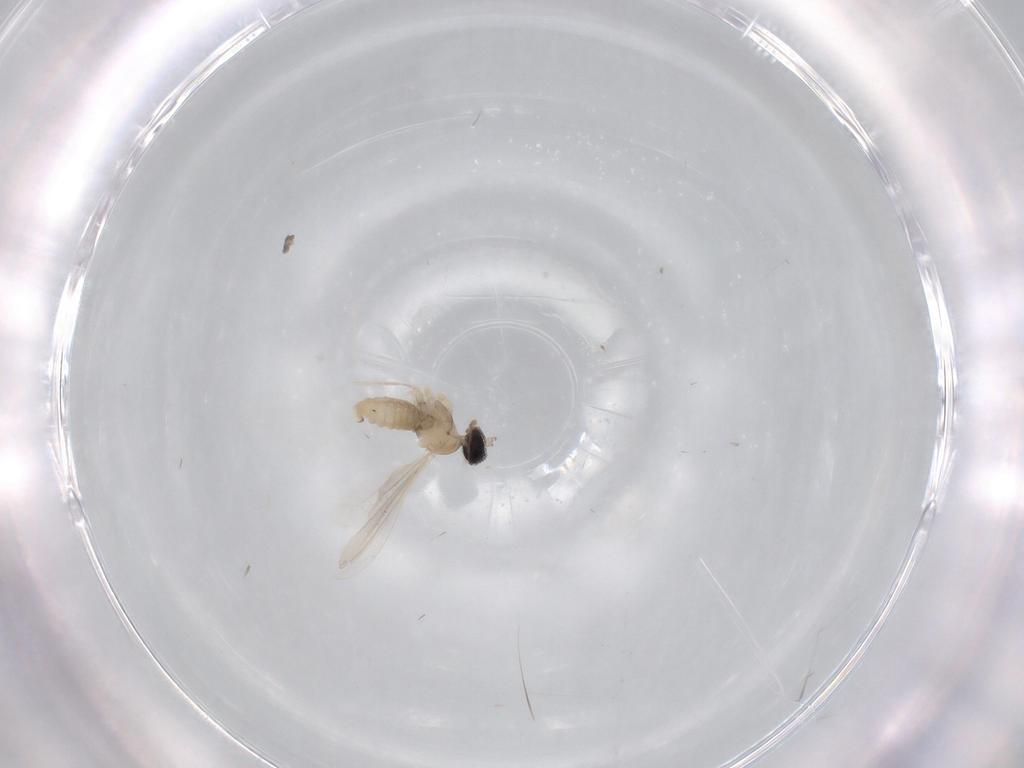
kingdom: Animalia
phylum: Arthropoda
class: Insecta
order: Diptera
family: Cecidomyiidae
